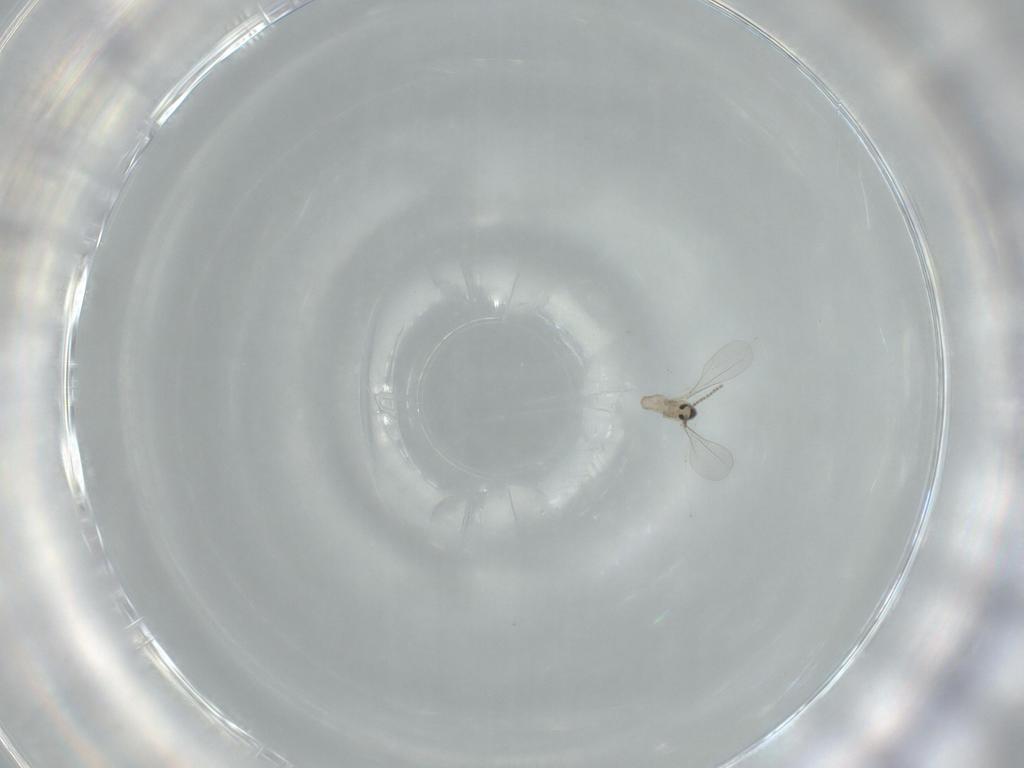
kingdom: Animalia
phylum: Arthropoda
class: Insecta
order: Diptera
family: Cecidomyiidae
